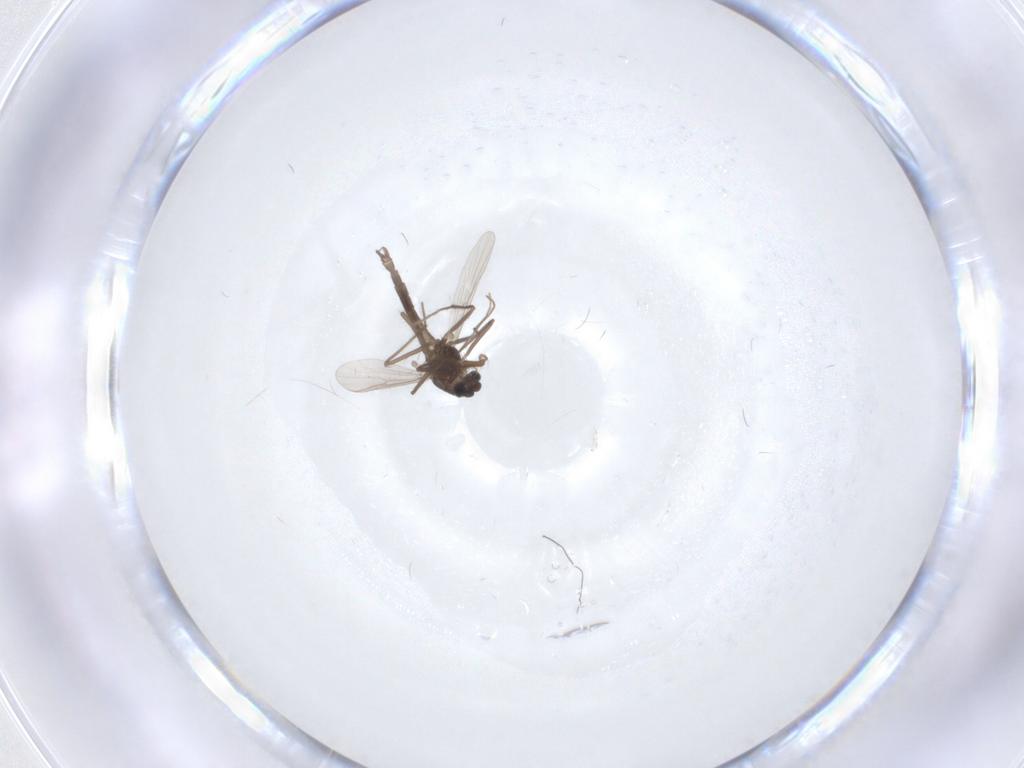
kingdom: Animalia
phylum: Arthropoda
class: Insecta
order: Diptera
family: Chironomidae
